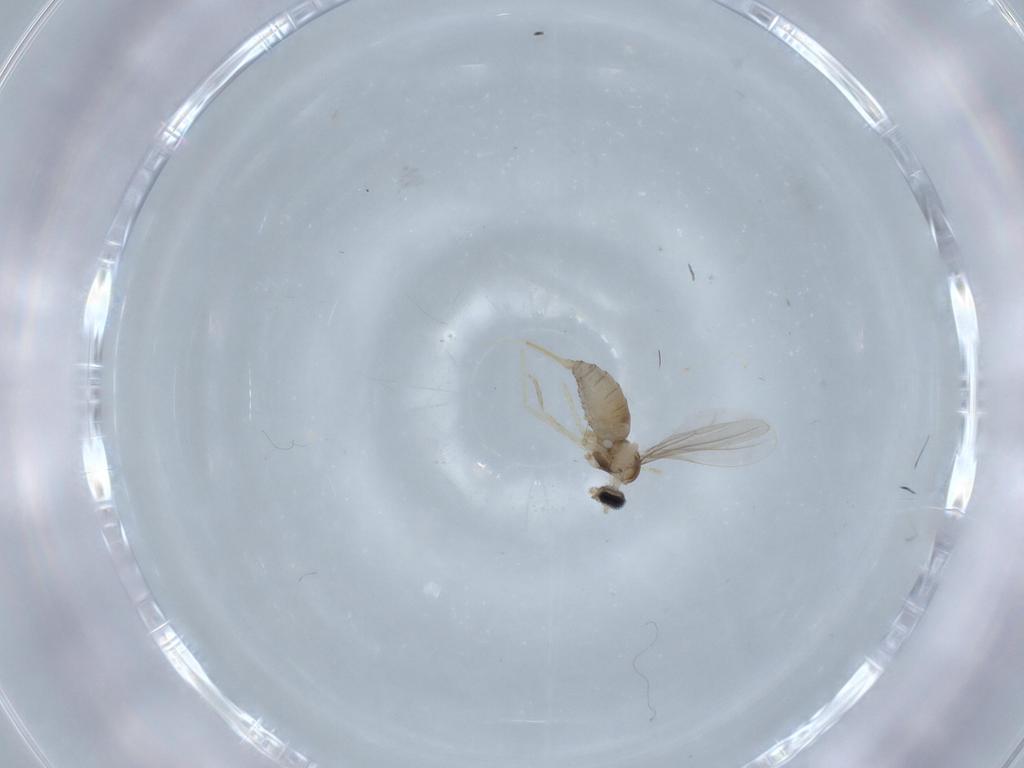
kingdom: Animalia
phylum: Arthropoda
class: Insecta
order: Diptera
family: Cecidomyiidae
